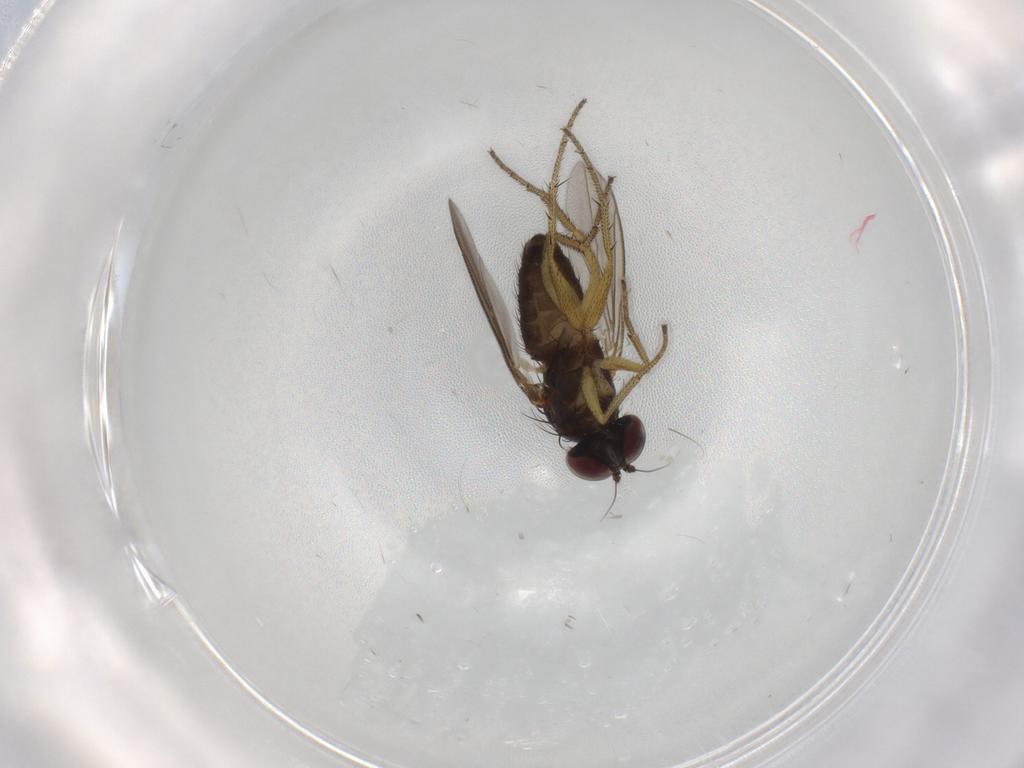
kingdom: Animalia
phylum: Arthropoda
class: Insecta
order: Diptera
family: Dolichopodidae
